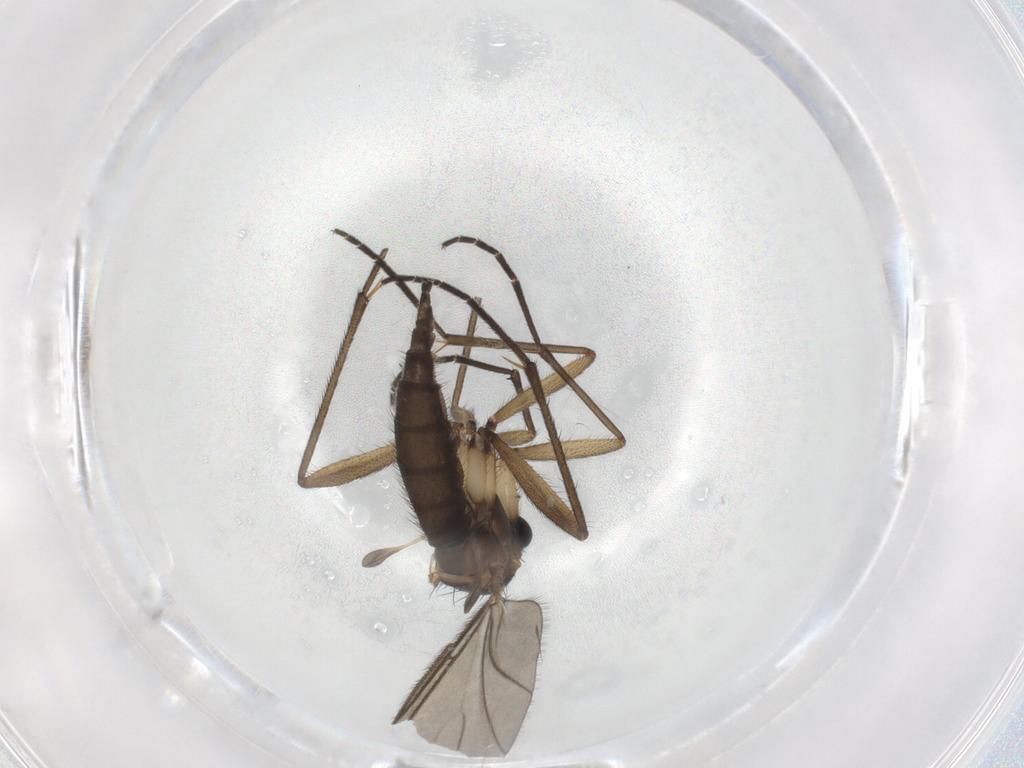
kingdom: Animalia
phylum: Arthropoda
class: Insecta
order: Diptera
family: Sciaridae
